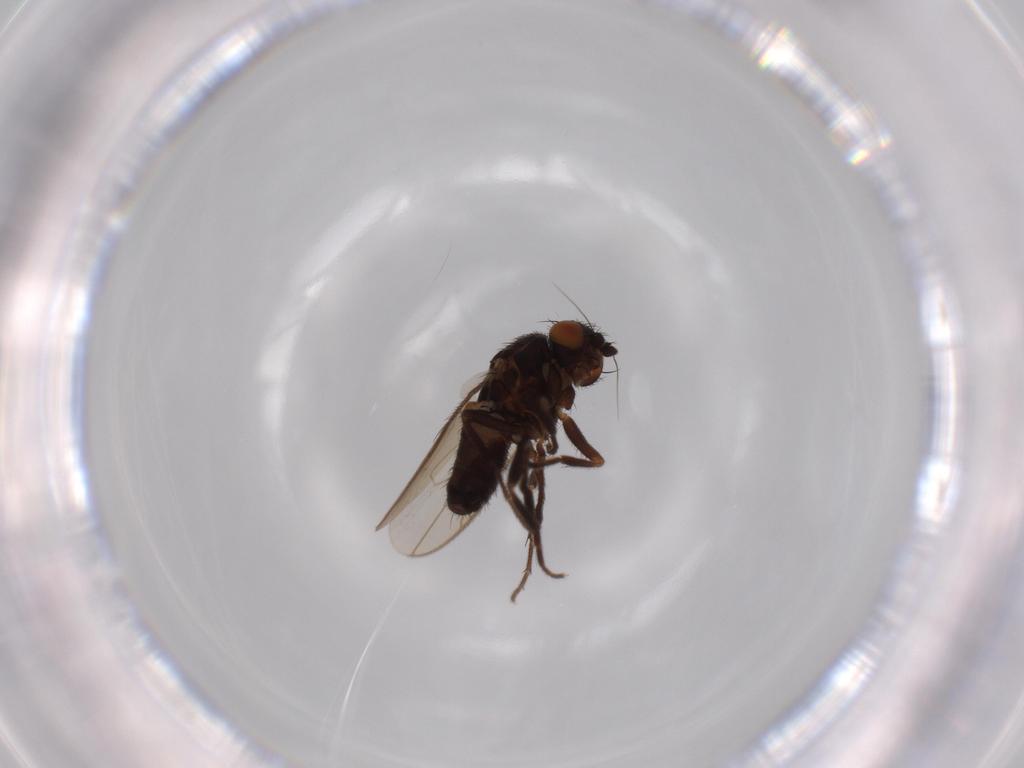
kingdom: Animalia
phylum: Arthropoda
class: Insecta
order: Diptera
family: Sphaeroceridae
